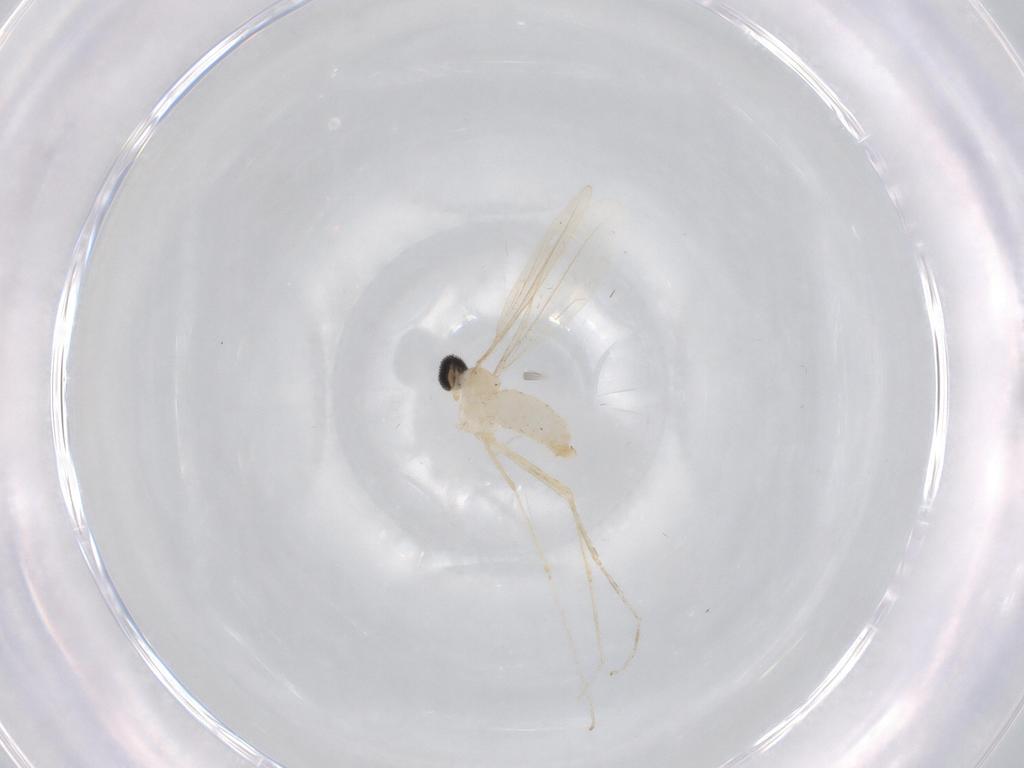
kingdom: Animalia
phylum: Arthropoda
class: Insecta
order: Diptera
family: Cecidomyiidae
